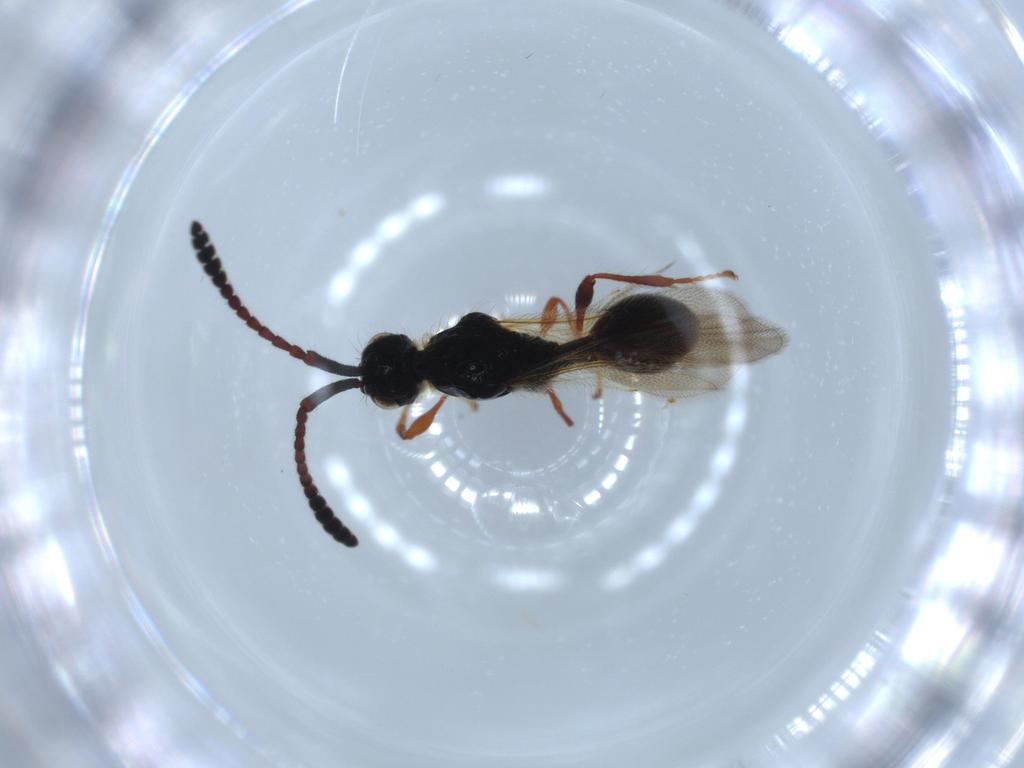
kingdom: Animalia
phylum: Arthropoda
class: Insecta
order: Hymenoptera
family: Diapriidae
